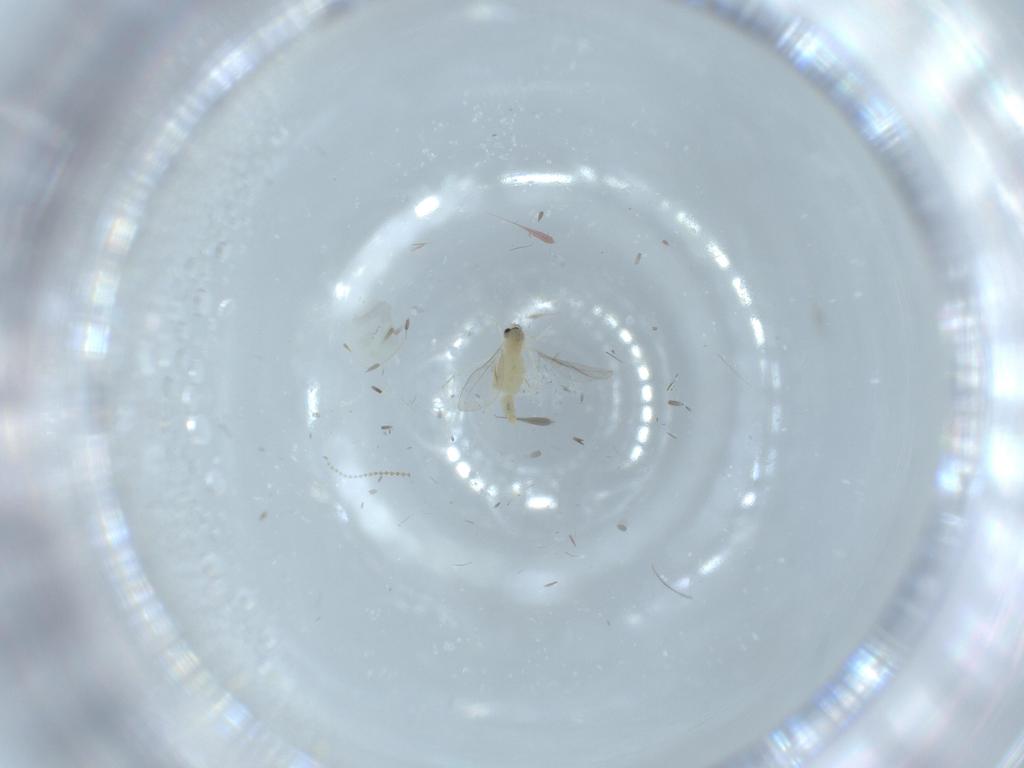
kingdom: Animalia
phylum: Arthropoda
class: Insecta
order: Diptera
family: Cecidomyiidae
